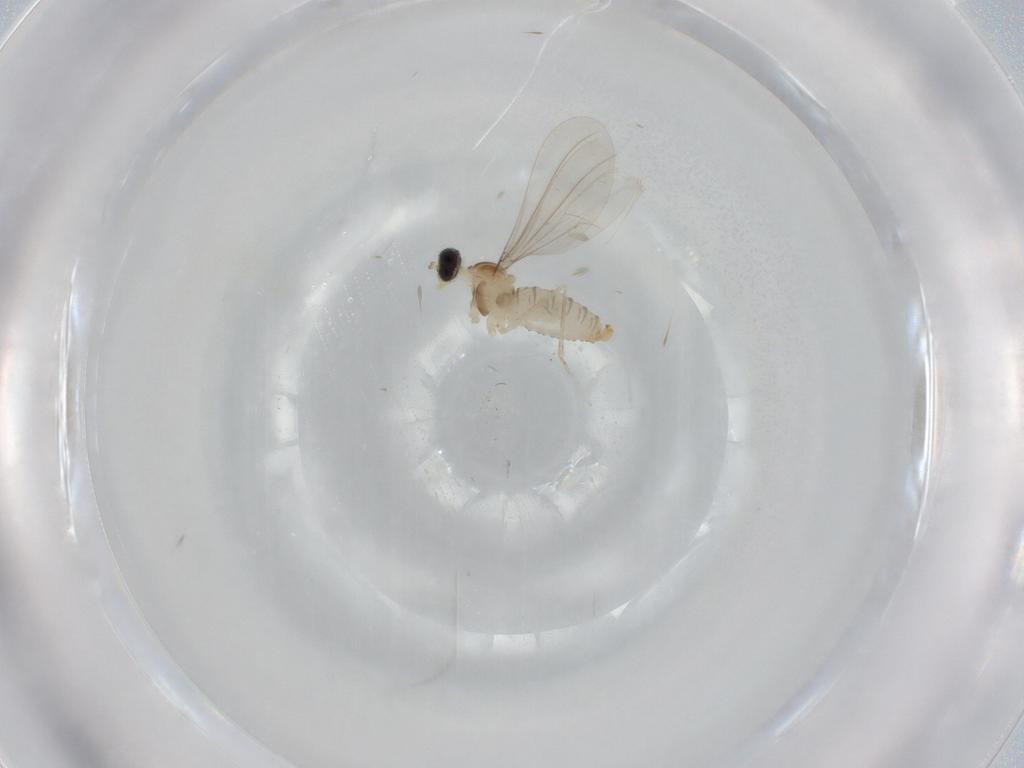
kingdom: Animalia
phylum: Arthropoda
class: Insecta
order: Diptera
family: Cecidomyiidae
